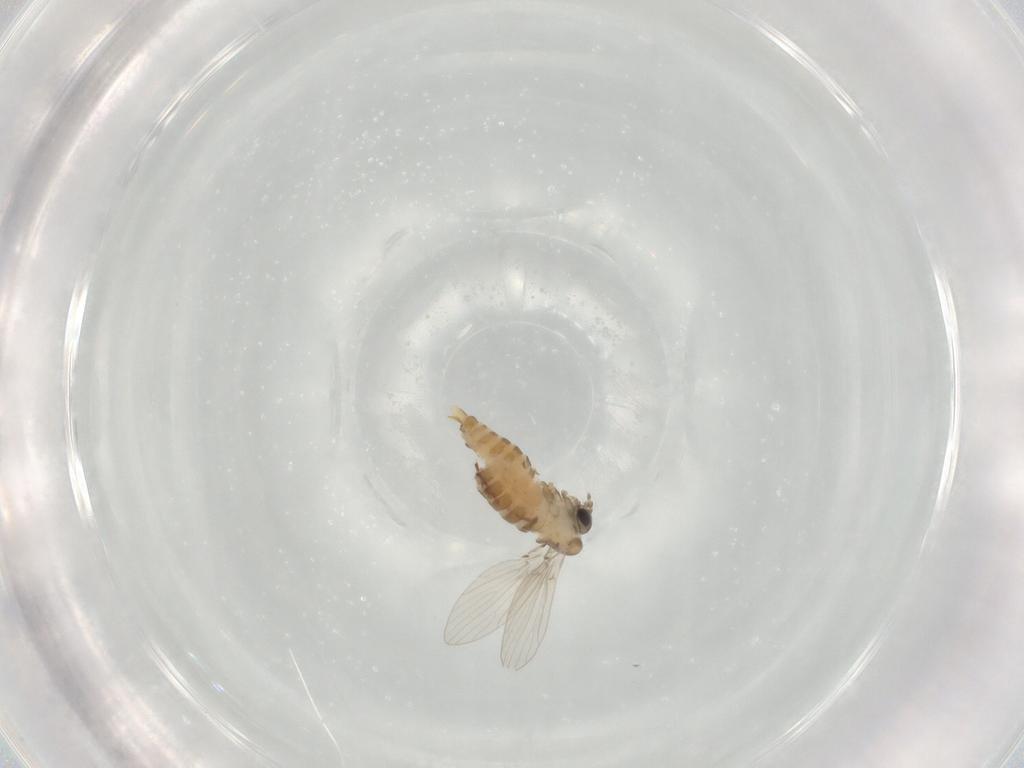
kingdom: Animalia
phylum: Arthropoda
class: Insecta
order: Diptera
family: Psychodidae
